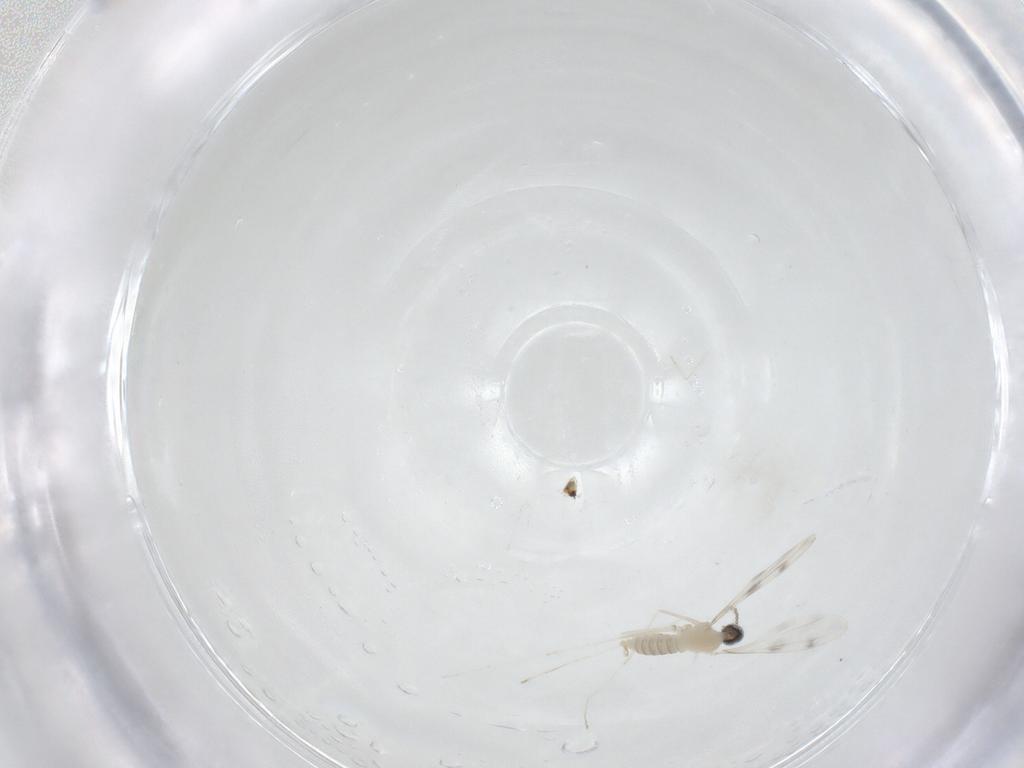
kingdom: Animalia
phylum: Arthropoda
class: Insecta
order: Diptera
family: Cecidomyiidae
